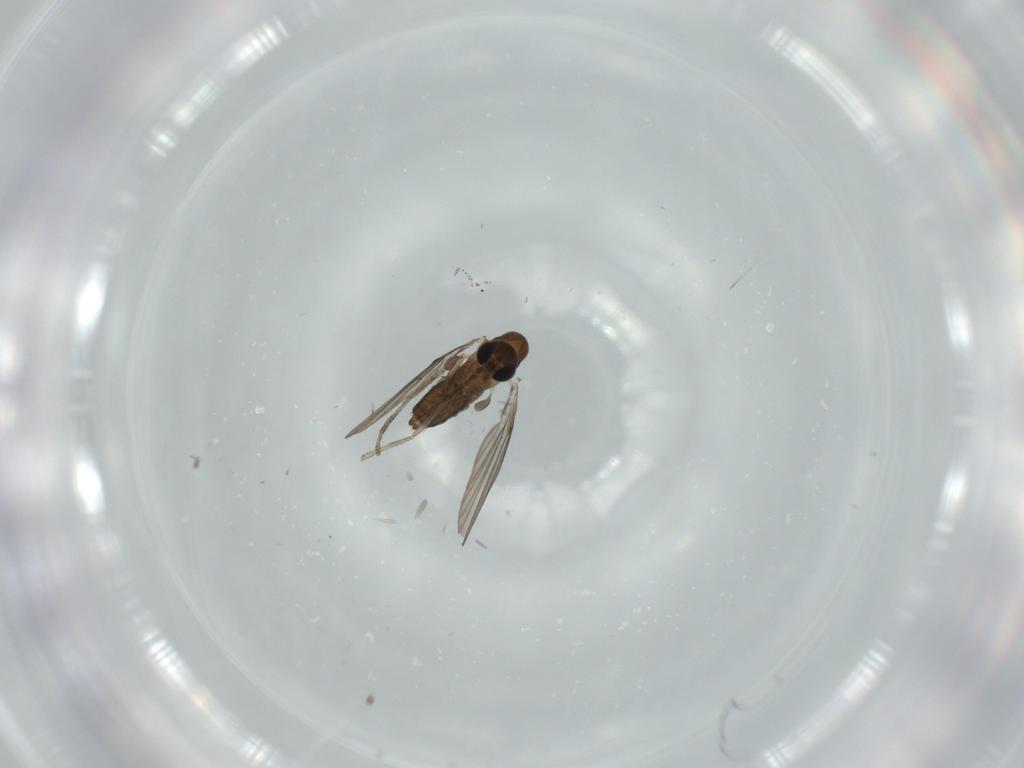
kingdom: Animalia
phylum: Arthropoda
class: Insecta
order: Diptera
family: Psychodidae
